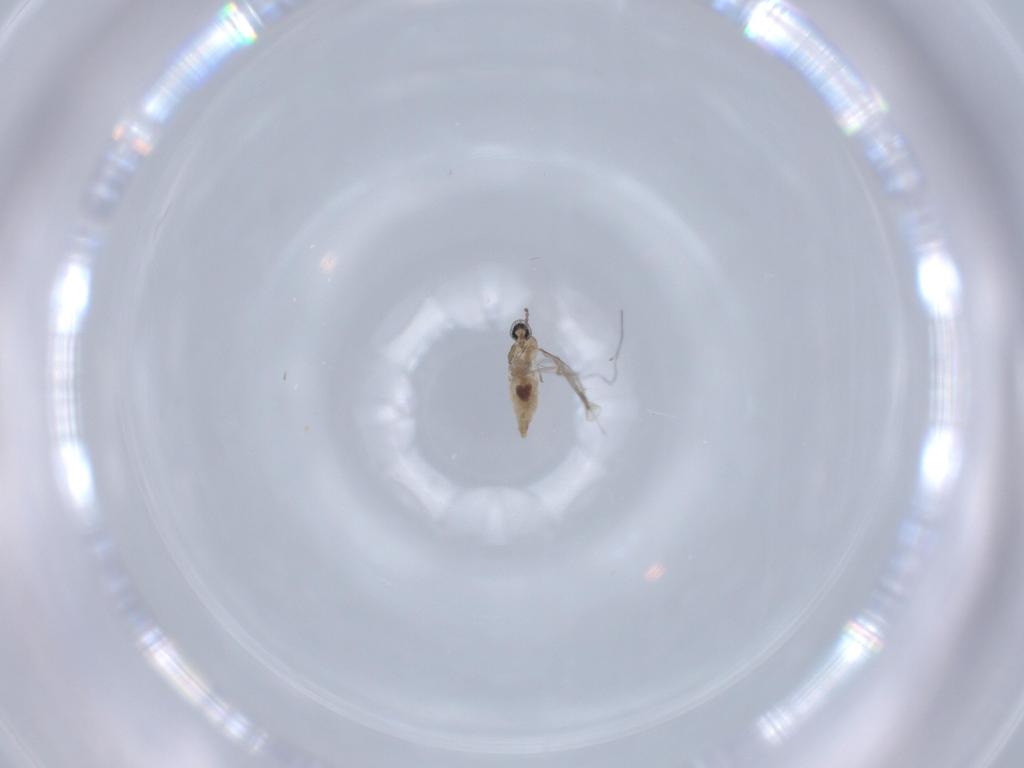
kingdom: Animalia
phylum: Arthropoda
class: Insecta
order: Diptera
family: Cecidomyiidae
